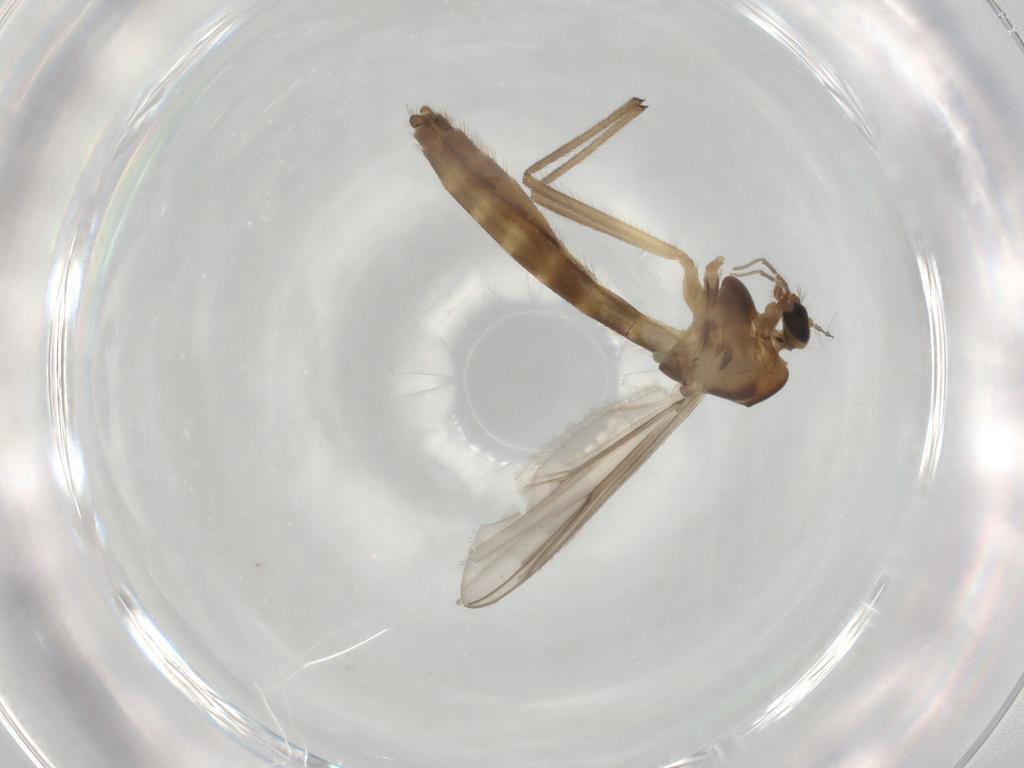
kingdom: Animalia
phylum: Arthropoda
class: Insecta
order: Diptera
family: Chironomidae
